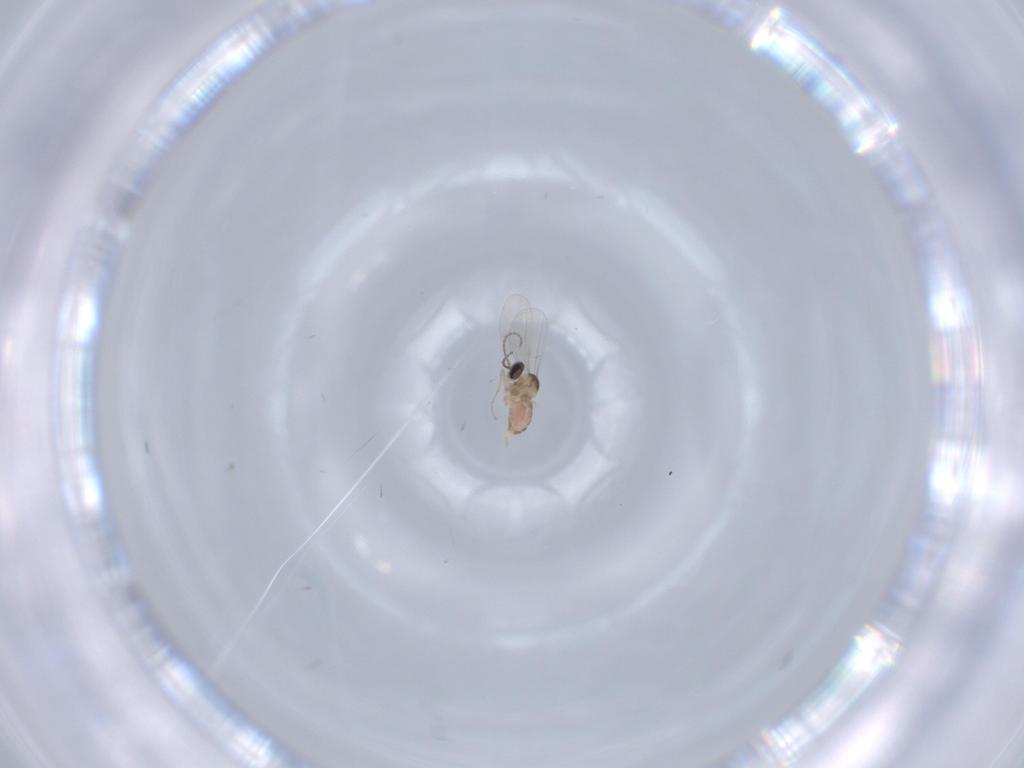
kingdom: Animalia
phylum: Arthropoda
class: Insecta
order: Diptera
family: Cecidomyiidae
